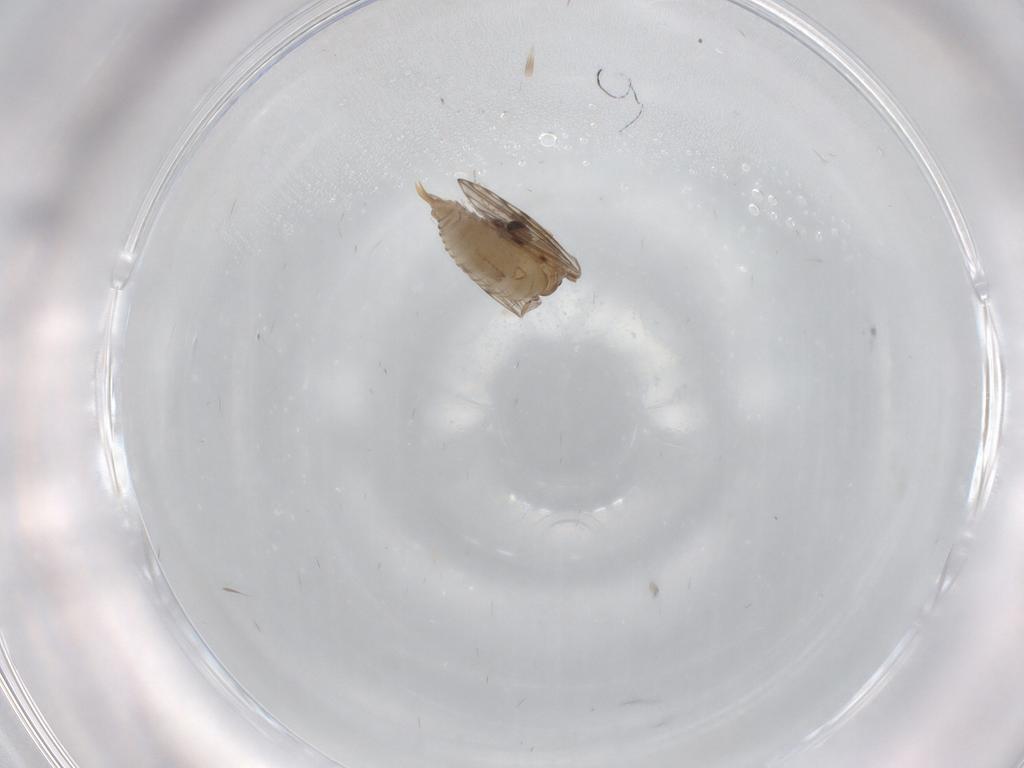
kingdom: Animalia
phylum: Arthropoda
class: Insecta
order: Diptera
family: Psychodidae
